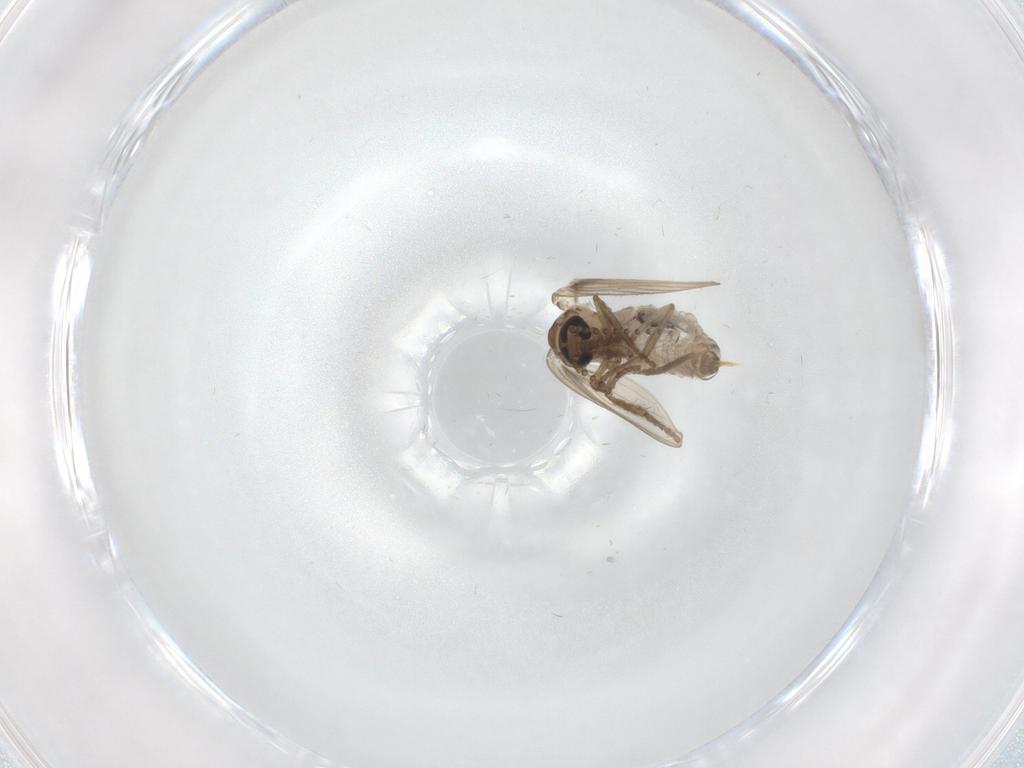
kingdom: Animalia
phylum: Arthropoda
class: Insecta
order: Diptera
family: Psychodidae
